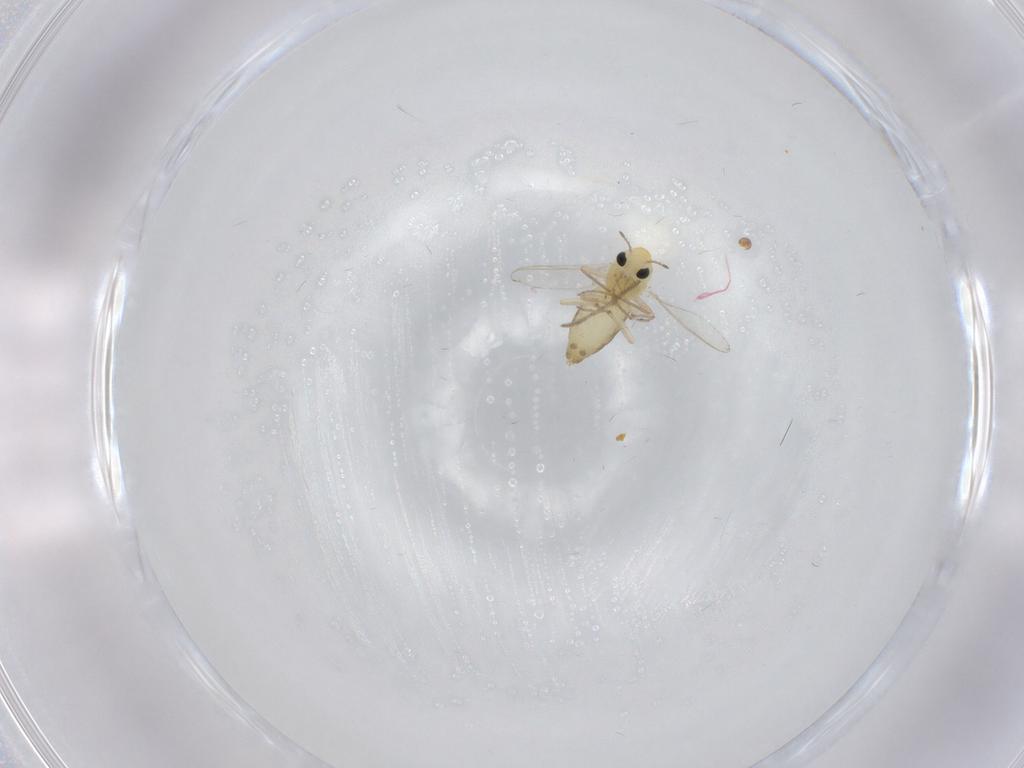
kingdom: Animalia
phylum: Arthropoda
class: Insecta
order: Diptera
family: Chironomidae
